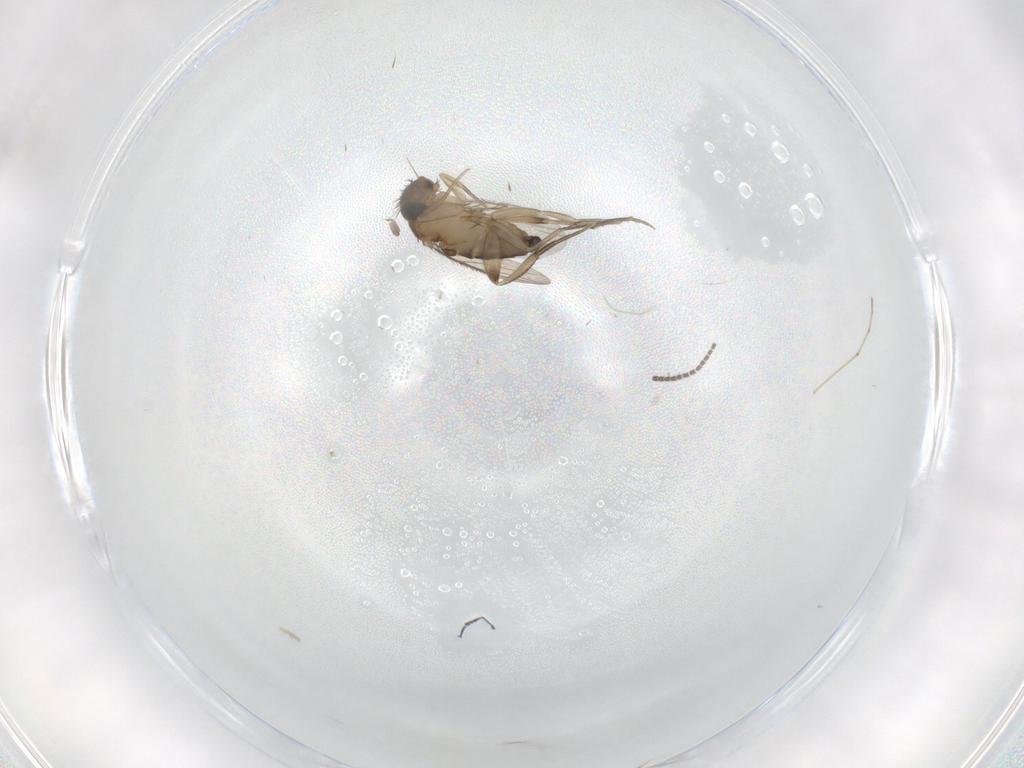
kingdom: Animalia
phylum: Arthropoda
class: Insecta
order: Diptera
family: Phoridae
